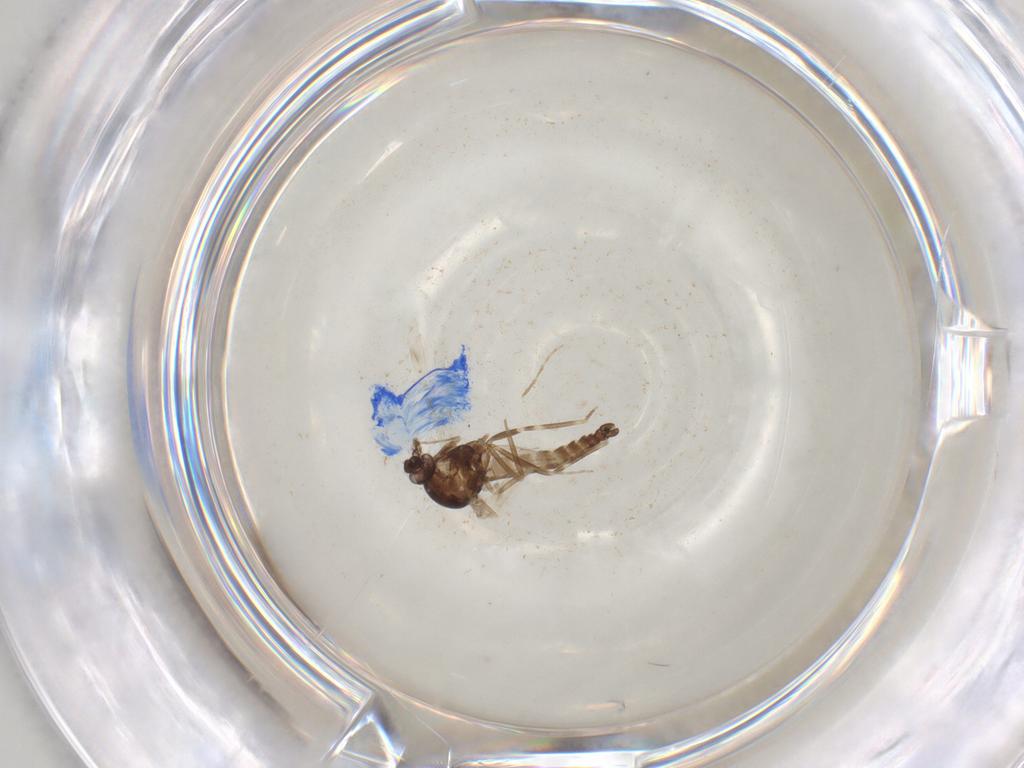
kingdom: Animalia
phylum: Arthropoda
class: Insecta
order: Diptera
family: Ceratopogonidae
